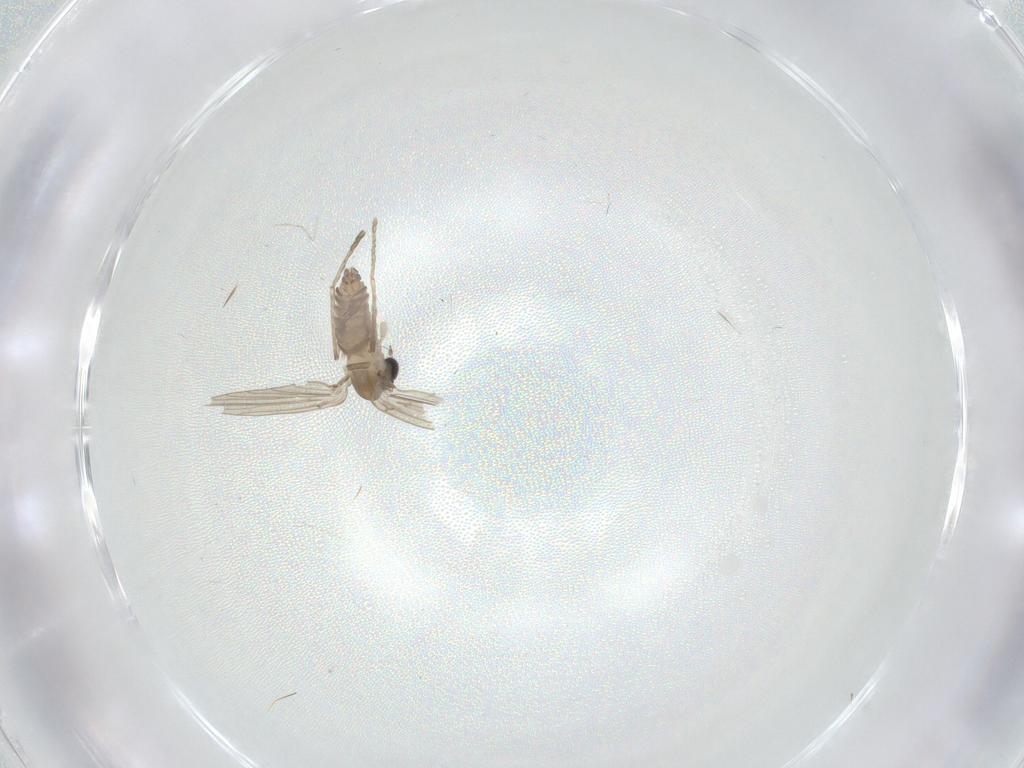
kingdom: Animalia
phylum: Arthropoda
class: Insecta
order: Diptera
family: Cecidomyiidae
